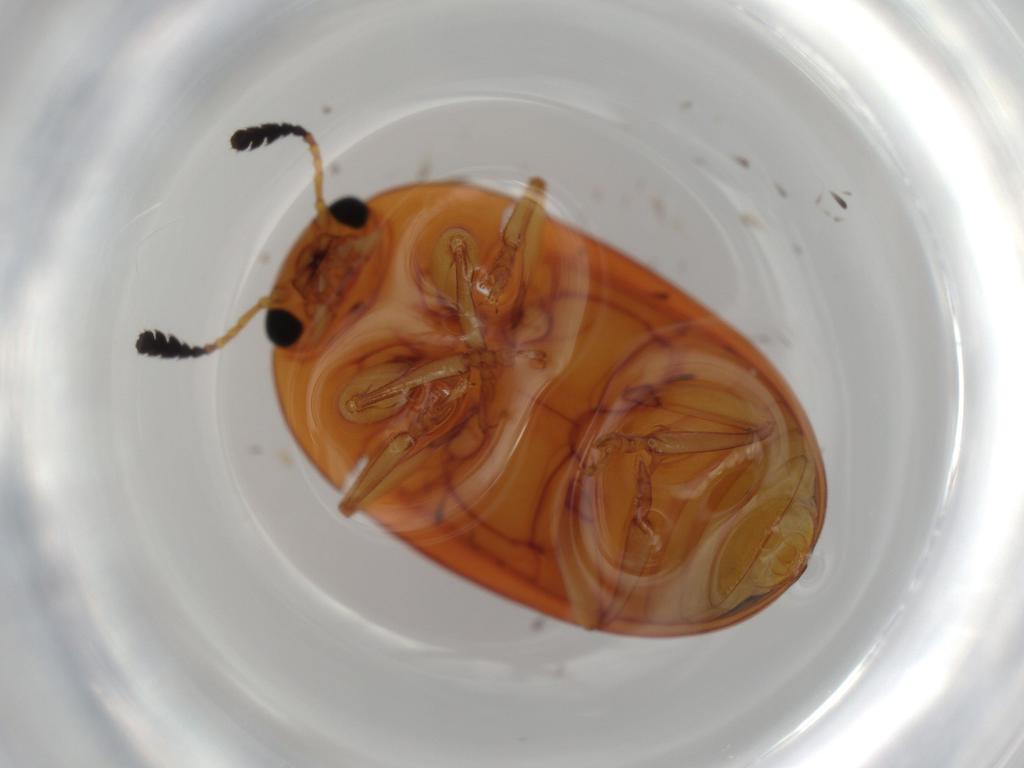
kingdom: Animalia
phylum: Arthropoda
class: Insecta
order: Coleoptera
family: Erotylidae
